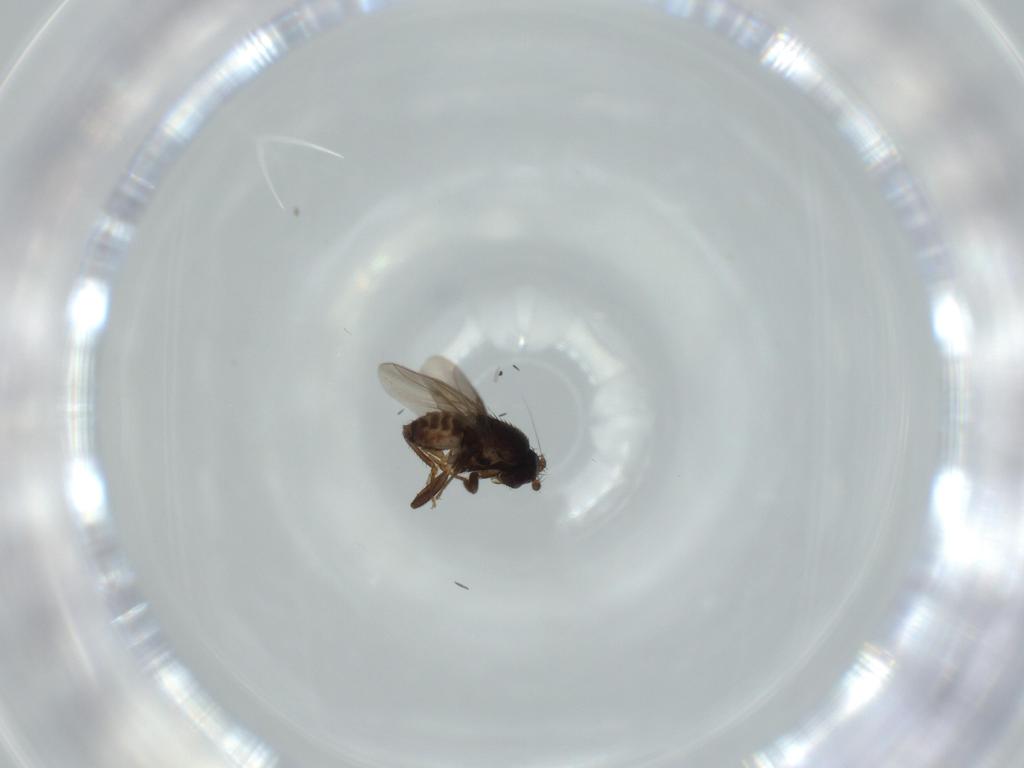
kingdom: Animalia
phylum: Arthropoda
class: Insecta
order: Diptera
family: Sphaeroceridae
